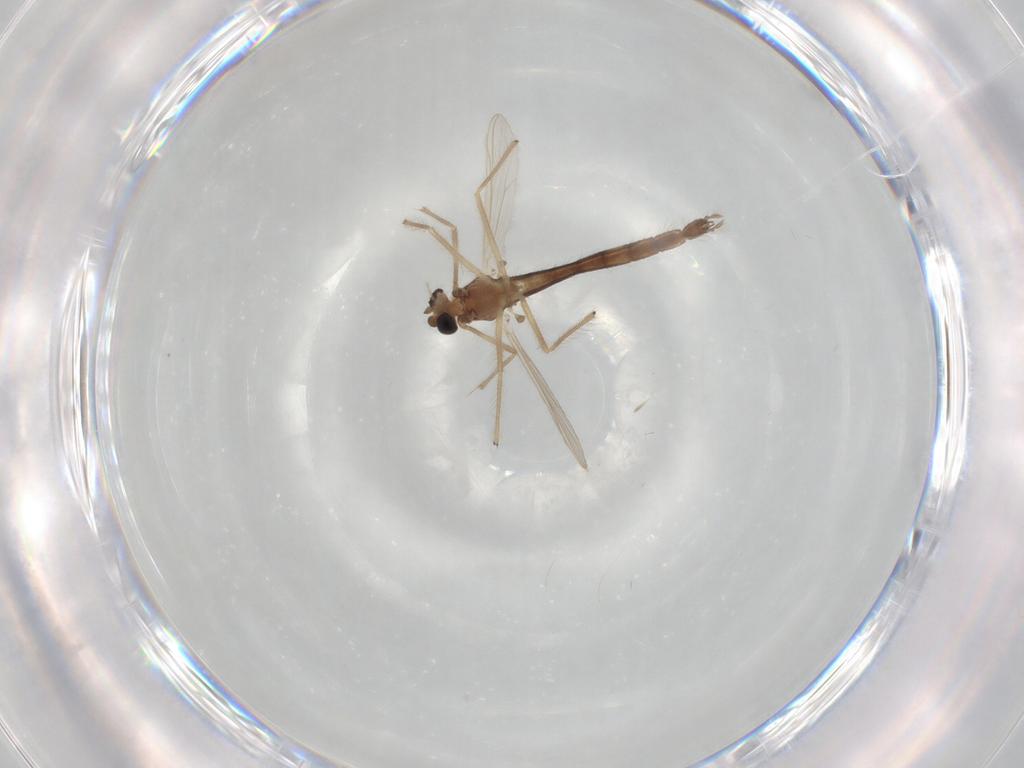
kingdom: Animalia
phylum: Arthropoda
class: Insecta
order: Diptera
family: Chironomidae
